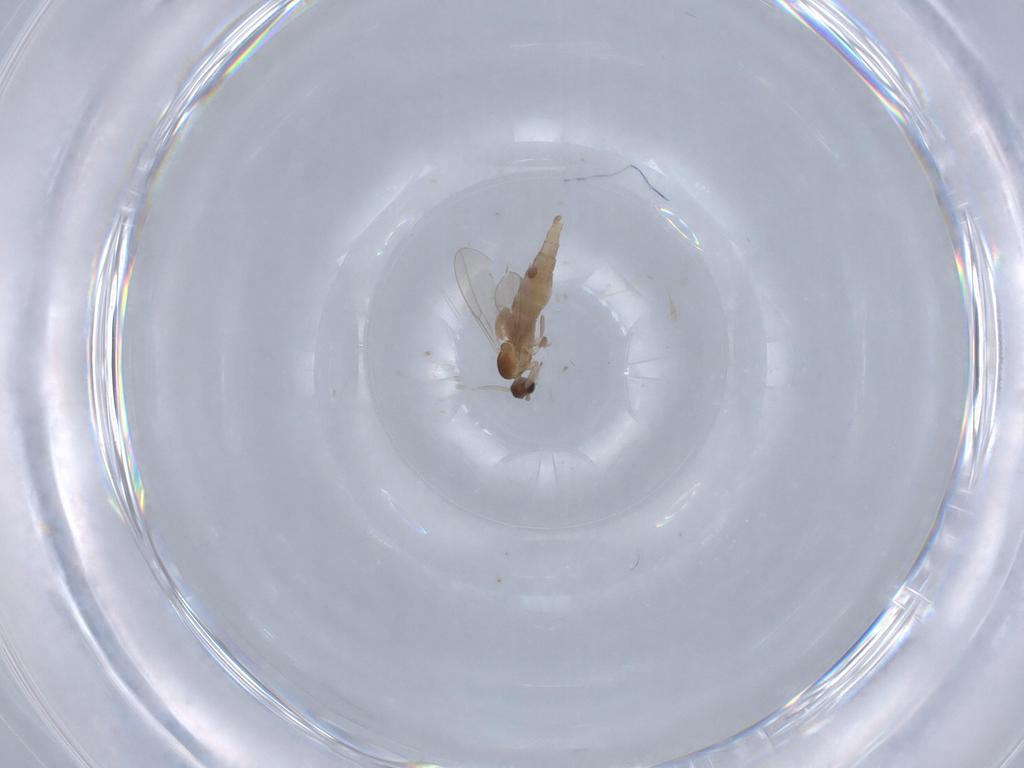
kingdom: Animalia
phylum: Arthropoda
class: Insecta
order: Diptera
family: Cecidomyiidae
